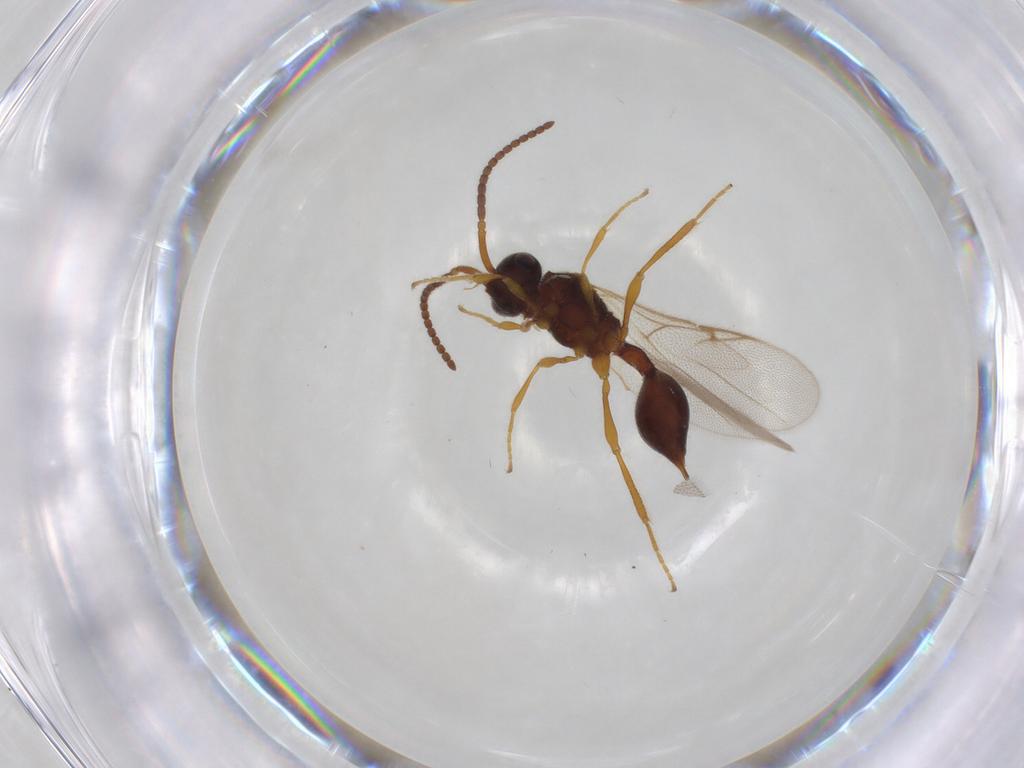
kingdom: Animalia
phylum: Arthropoda
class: Insecta
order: Hymenoptera
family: Diapriidae
